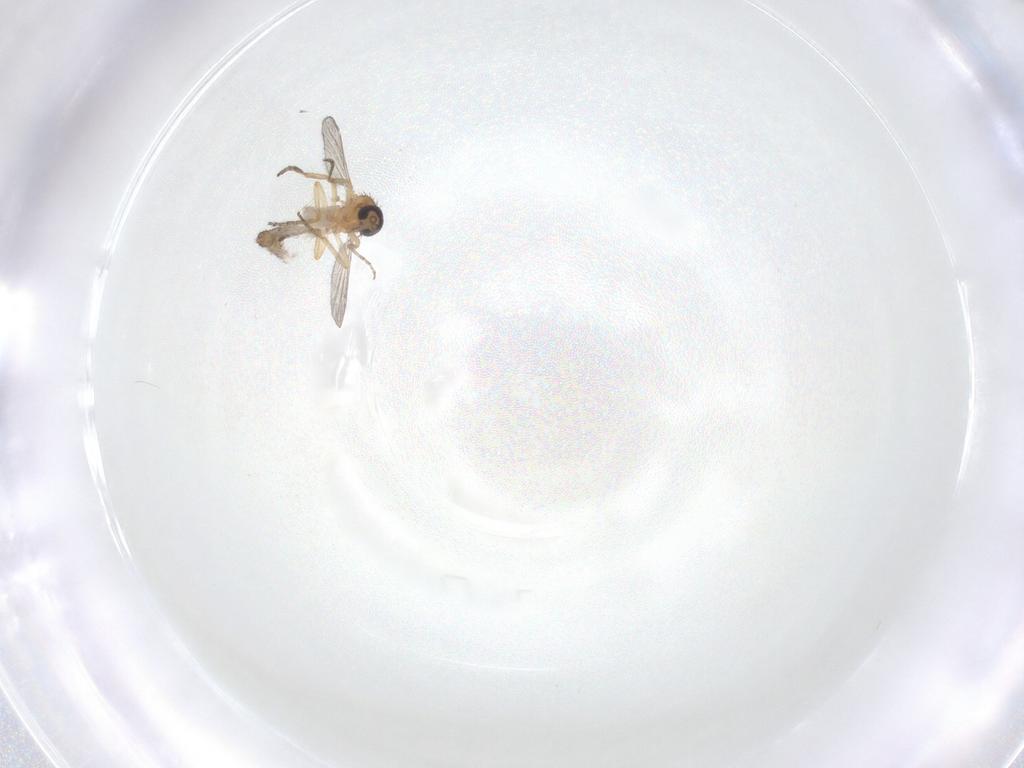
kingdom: Animalia
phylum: Arthropoda
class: Insecta
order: Diptera
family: Ceratopogonidae
